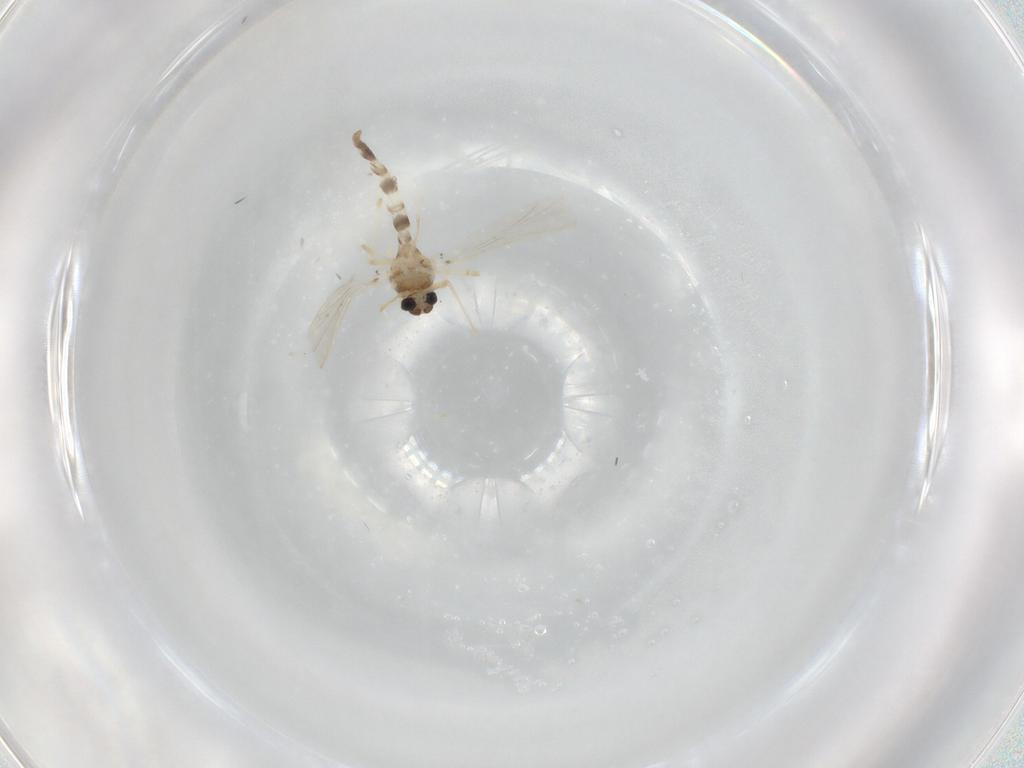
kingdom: Animalia
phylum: Arthropoda
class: Insecta
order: Diptera
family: Chironomidae
